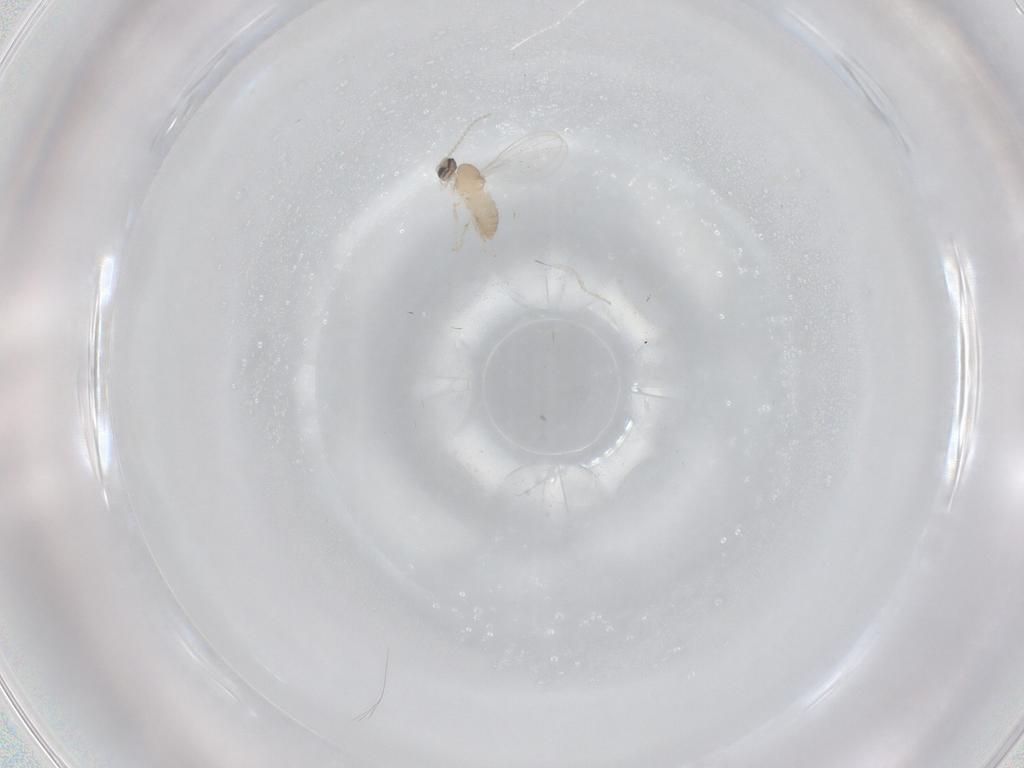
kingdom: Animalia
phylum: Arthropoda
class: Insecta
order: Diptera
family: Cecidomyiidae
